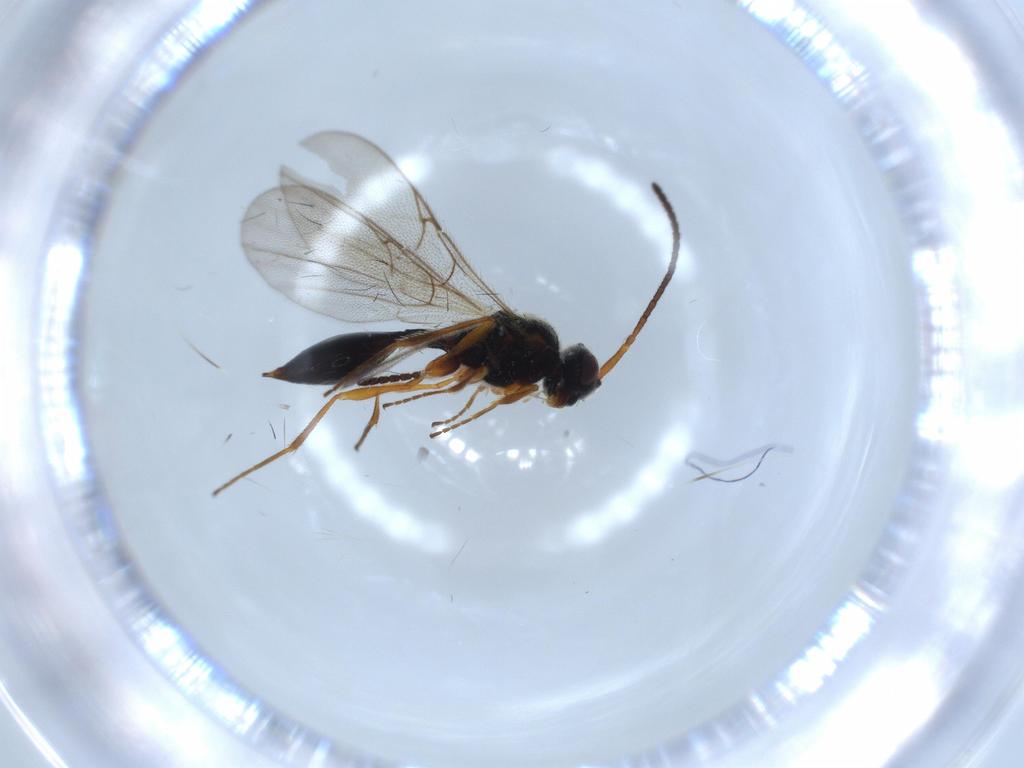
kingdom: Animalia
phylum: Arthropoda
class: Insecta
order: Hymenoptera
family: Diapriidae
